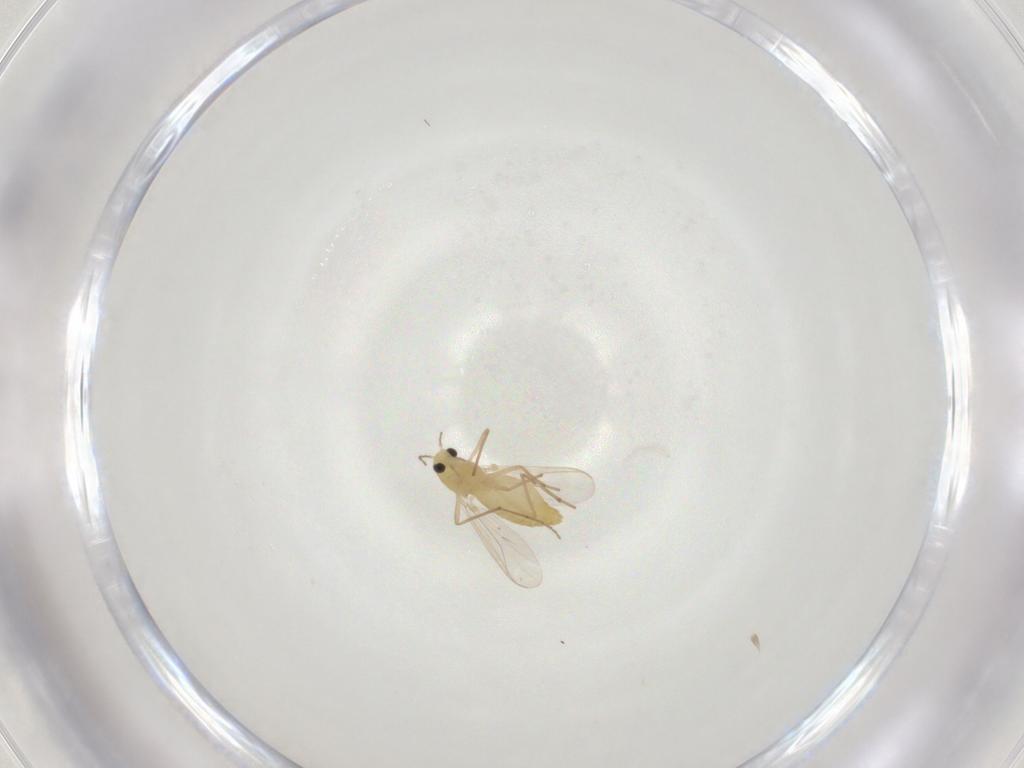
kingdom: Animalia
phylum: Arthropoda
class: Insecta
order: Diptera
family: Chironomidae
